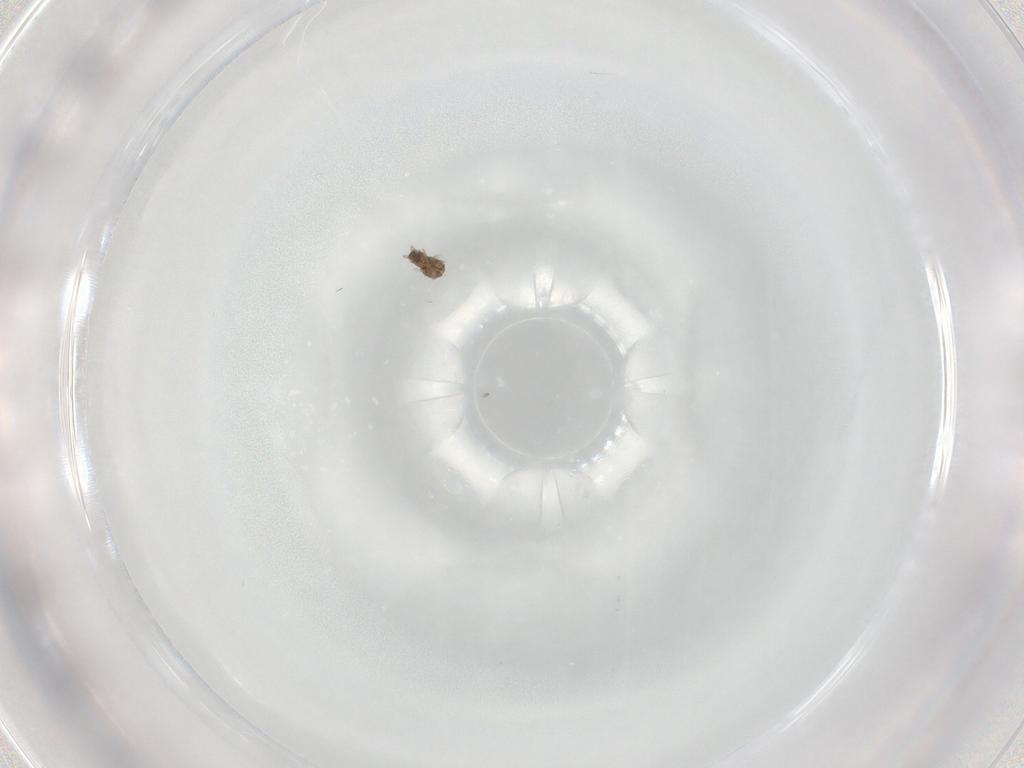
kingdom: Animalia
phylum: Arthropoda
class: Insecta
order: Hymenoptera
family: Mymaridae
